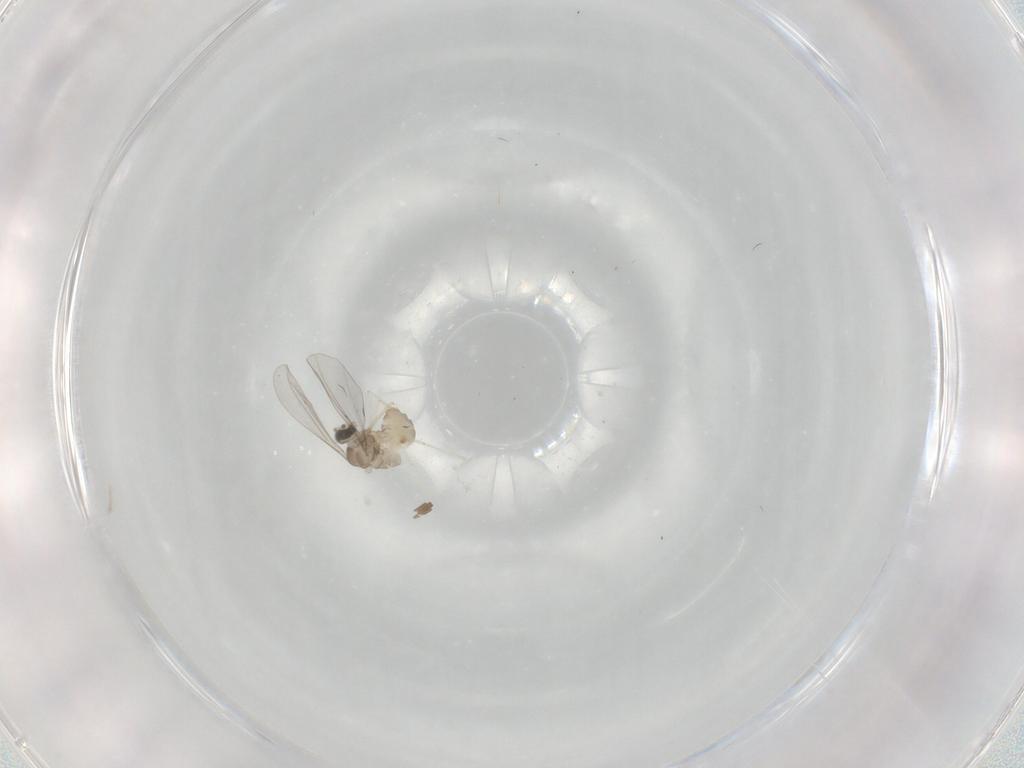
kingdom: Animalia
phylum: Arthropoda
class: Insecta
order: Diptera
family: Cecidomyiidae
